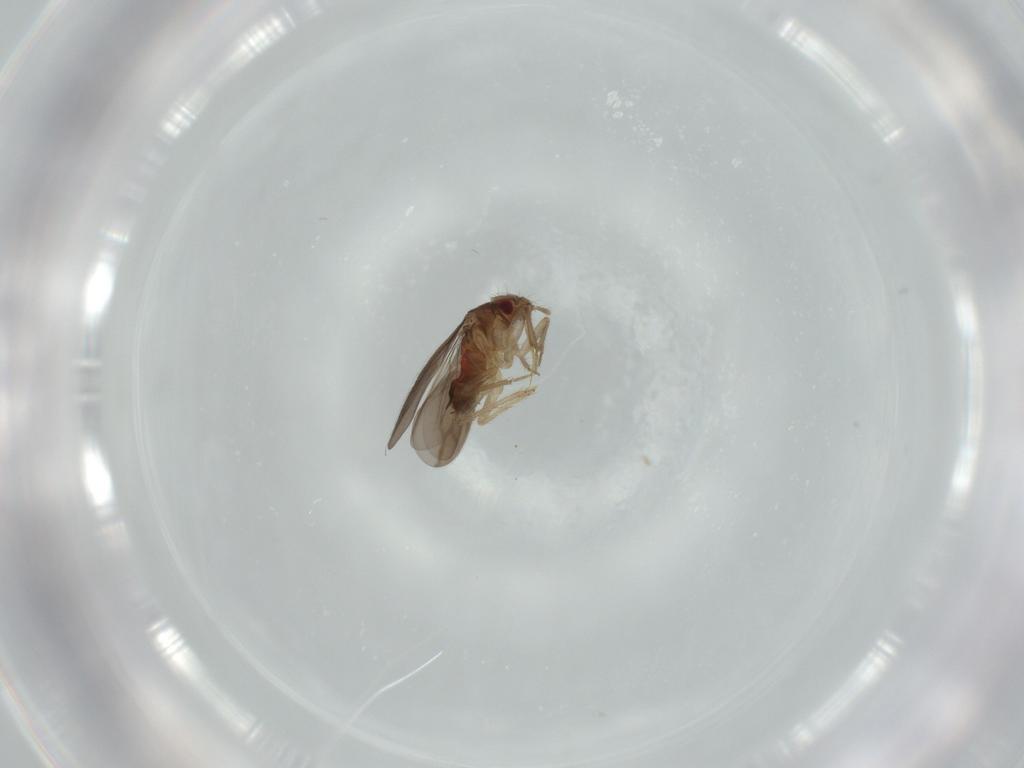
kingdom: Animalia
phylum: Arthropoda
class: Insecta
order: Hemiptera
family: Ceratocombidae
